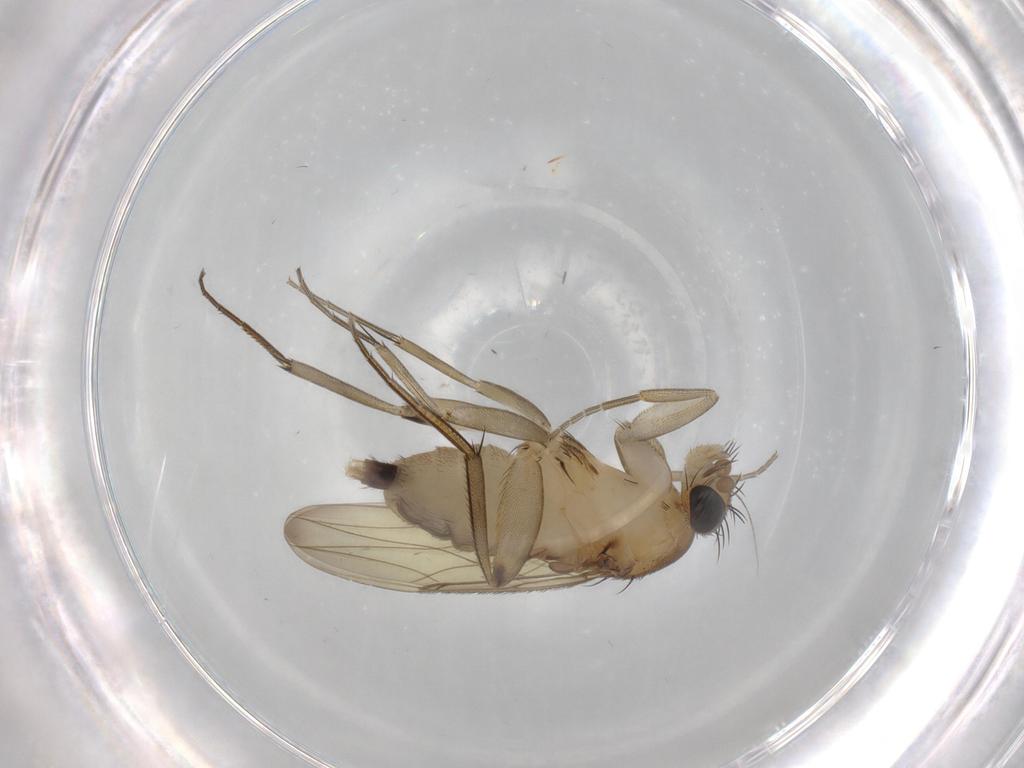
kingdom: Animalia
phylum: Arthropoda
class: Insecta
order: Diptera
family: Phoridae
